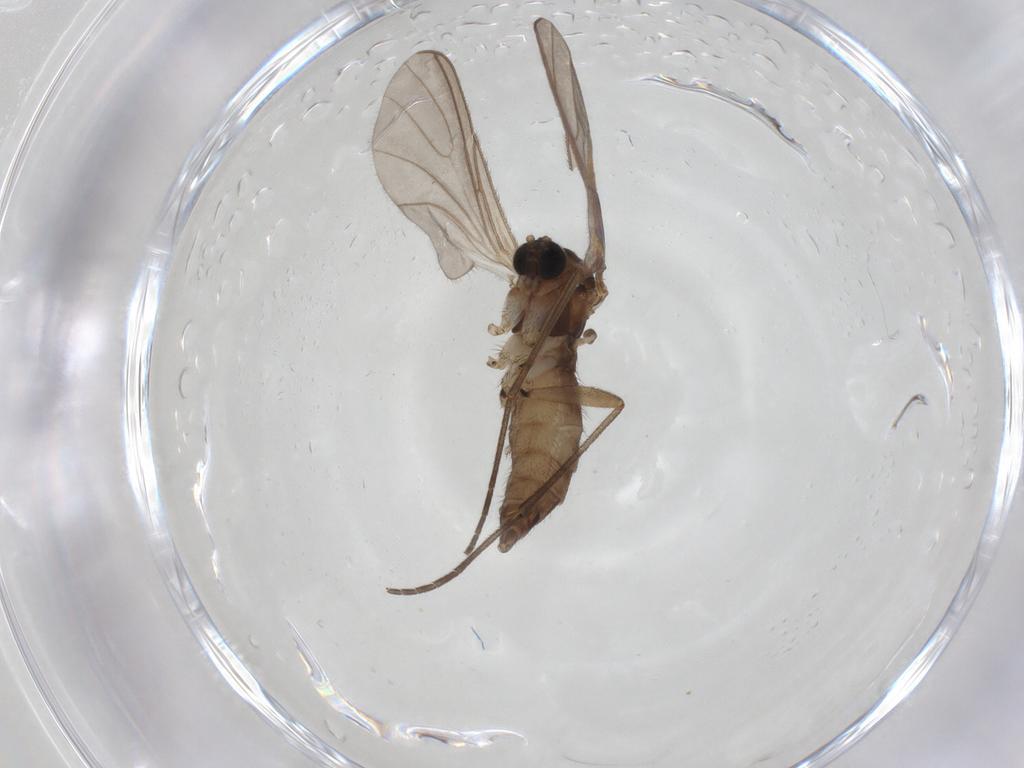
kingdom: Animalia
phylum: Arthropoda
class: Insecta
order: Diptera
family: Sciaridae
